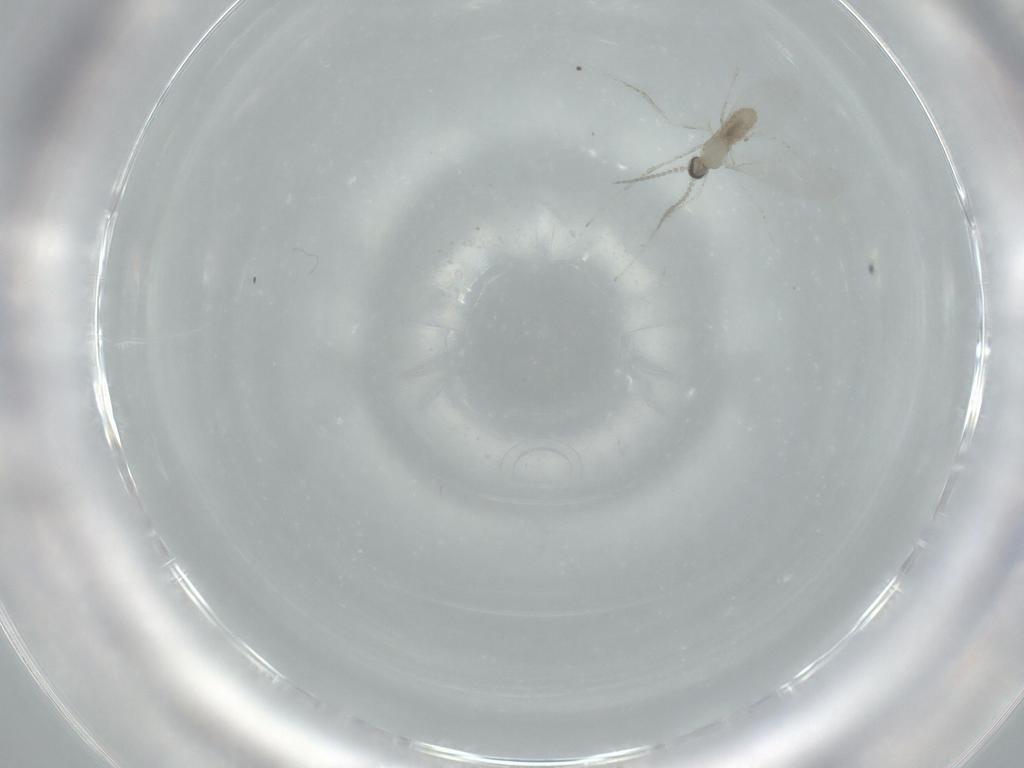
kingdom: Animalia
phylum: Arthropoda
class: Insecta
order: Diptera
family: Cecidomyiidae
